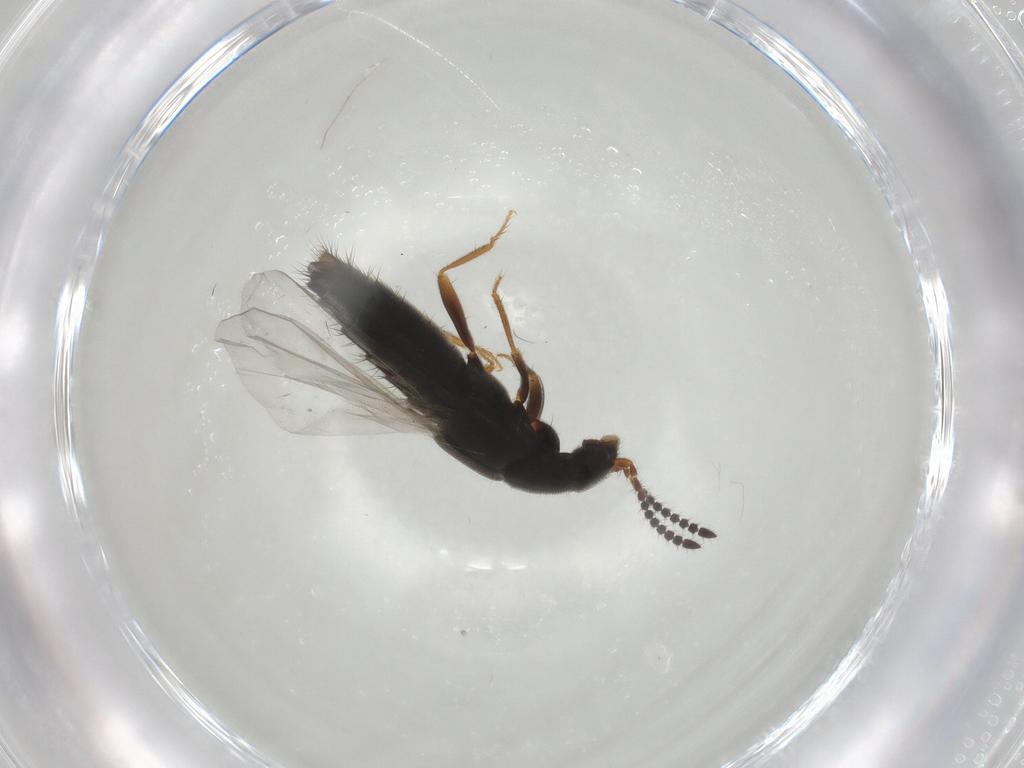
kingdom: Animalia
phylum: Arthropoda
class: Insecta
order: Coleoptera
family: Staphylinidae
